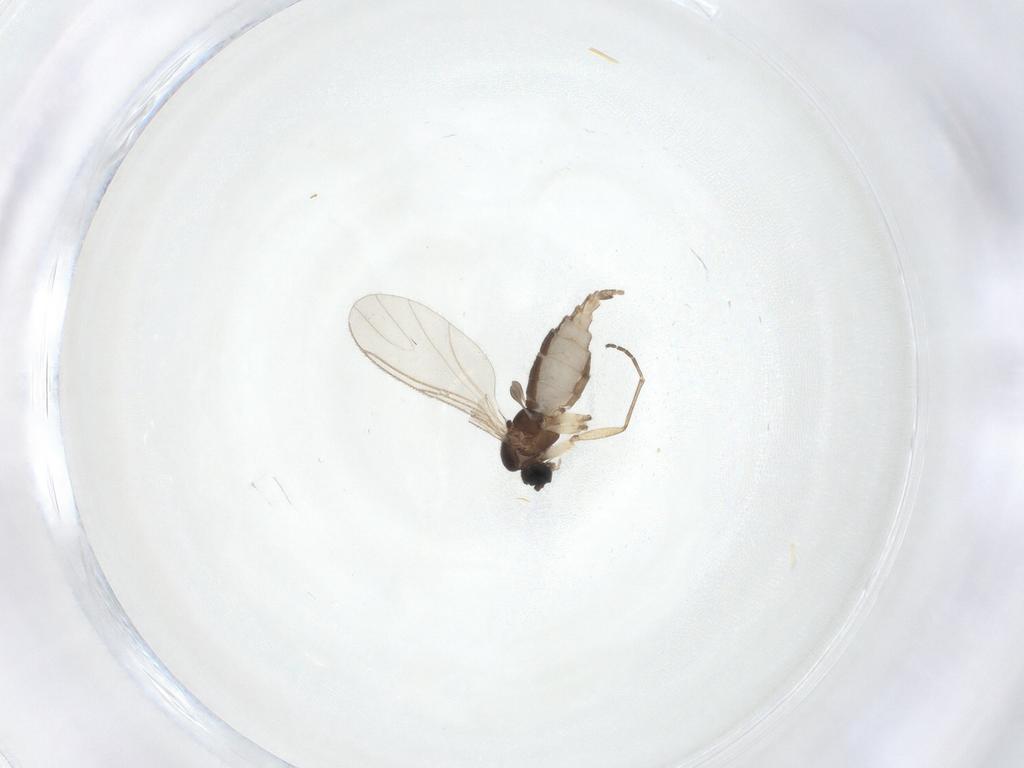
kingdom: Animalia
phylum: Arthropoda
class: Insecta
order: Diptera
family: Sciaridae
